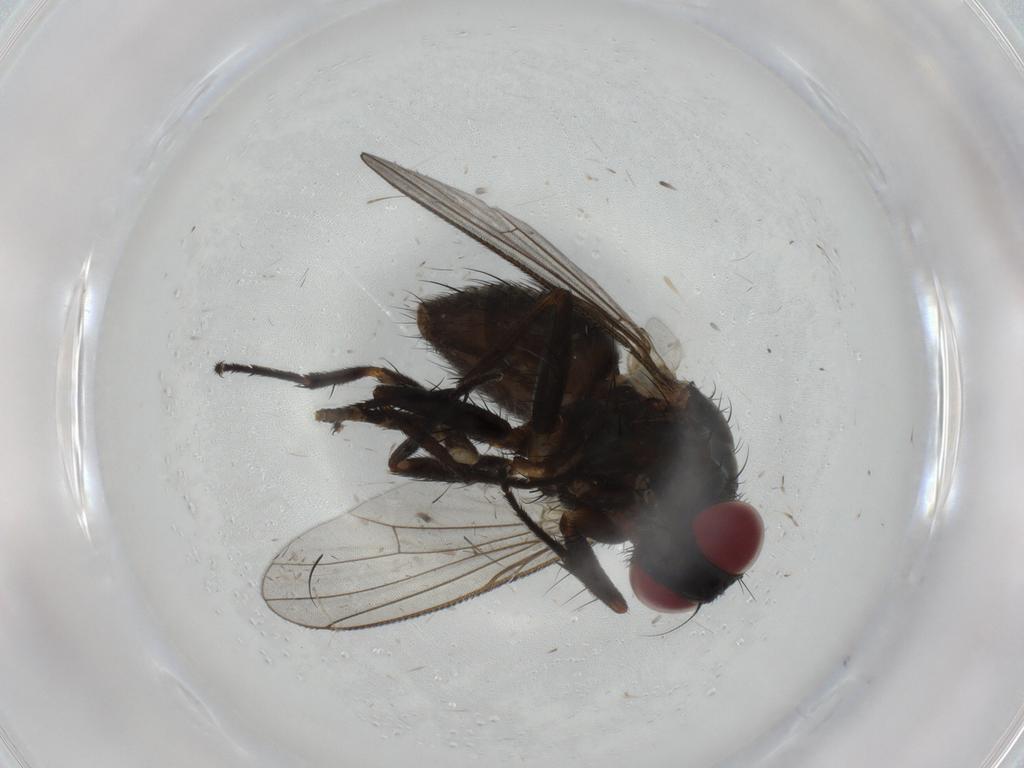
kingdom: Animalia
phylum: Arthropoda
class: Insecta
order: Diptera
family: Muscidae
